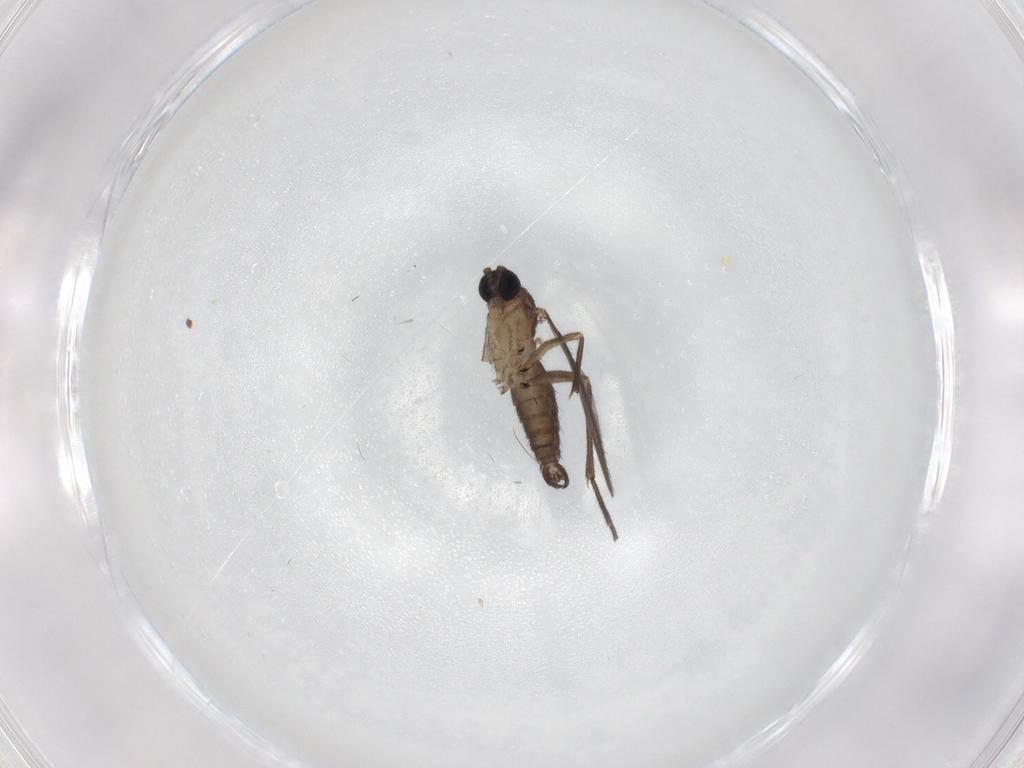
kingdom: Animalia
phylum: Arthropoda
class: Insecta
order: Diptera
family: Sciaridae
